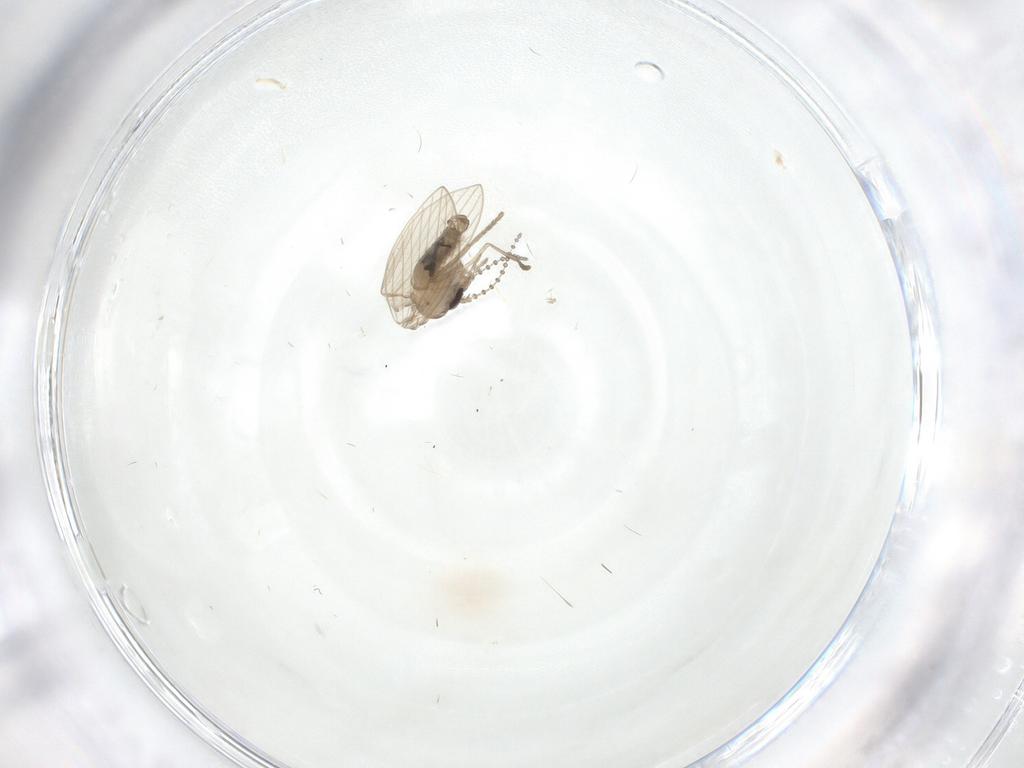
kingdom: Animalia
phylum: Arthropoda
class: Insecta
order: Diptera
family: Psychodidae
